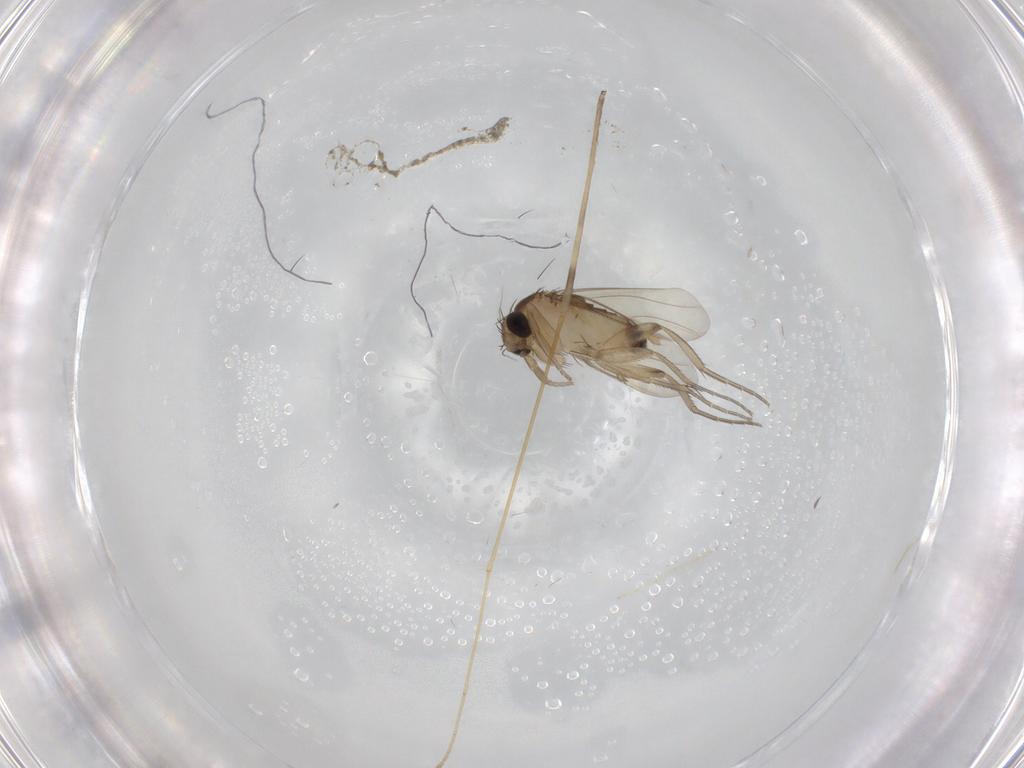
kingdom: Animalia
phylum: Arthropoda
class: Insecta
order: Diptera
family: Phoridae
